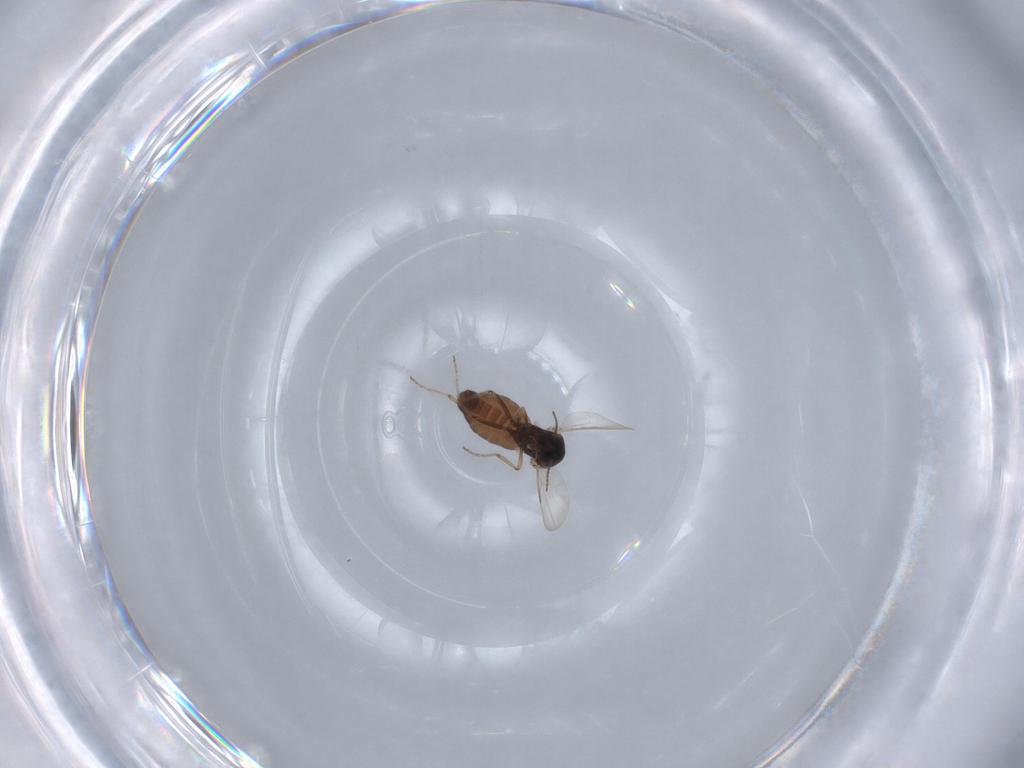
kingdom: Animalia
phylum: Arthropoda
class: Insecta
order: Diptera
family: Ceratopogonidae
